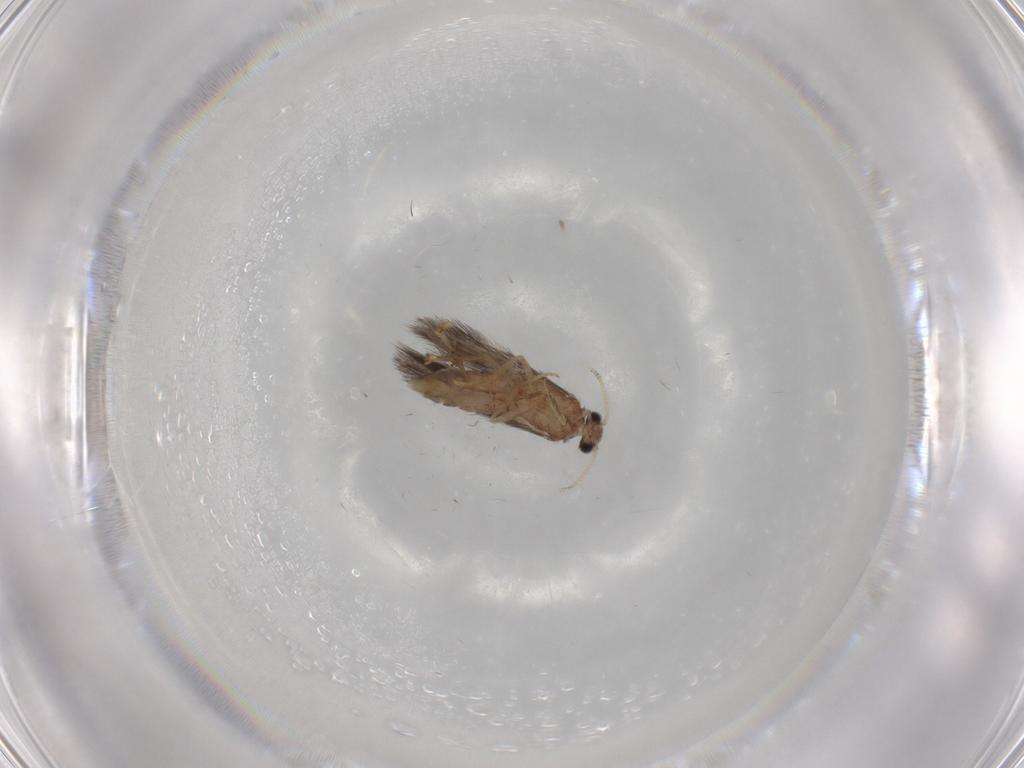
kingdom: Animalia
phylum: Arthropoda
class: Insecta
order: Trichoptera
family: Hydroptilidae
